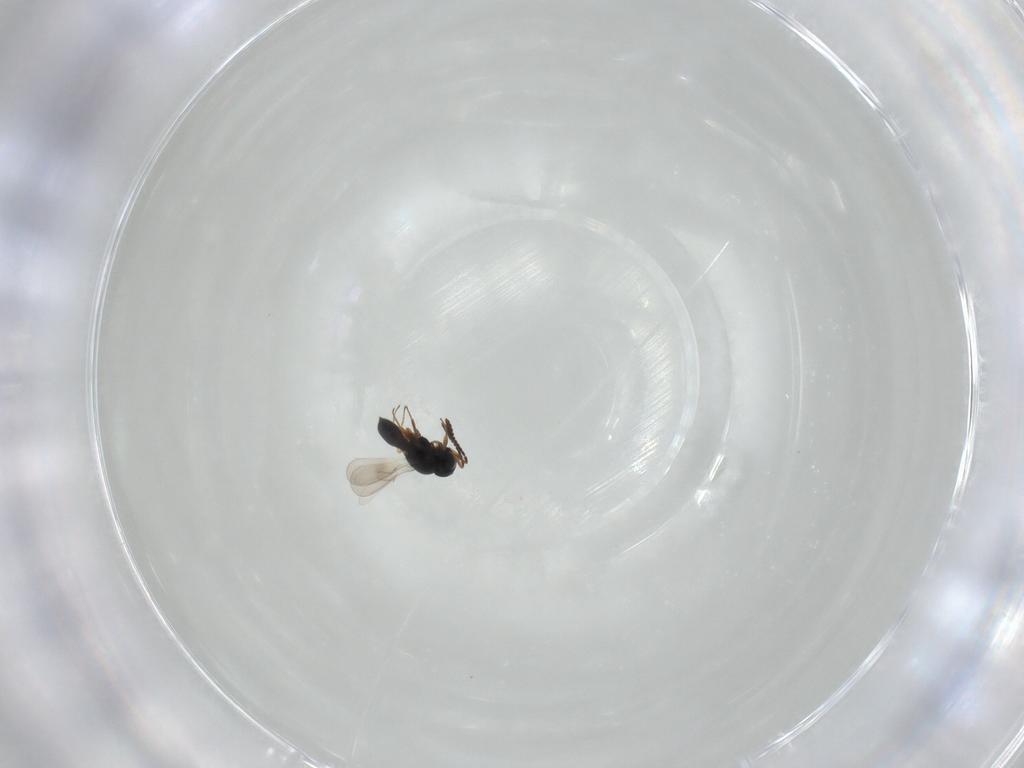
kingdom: Animalia
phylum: Arthropoda
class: Insecta
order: Hymenoptera
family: Scelionidae
